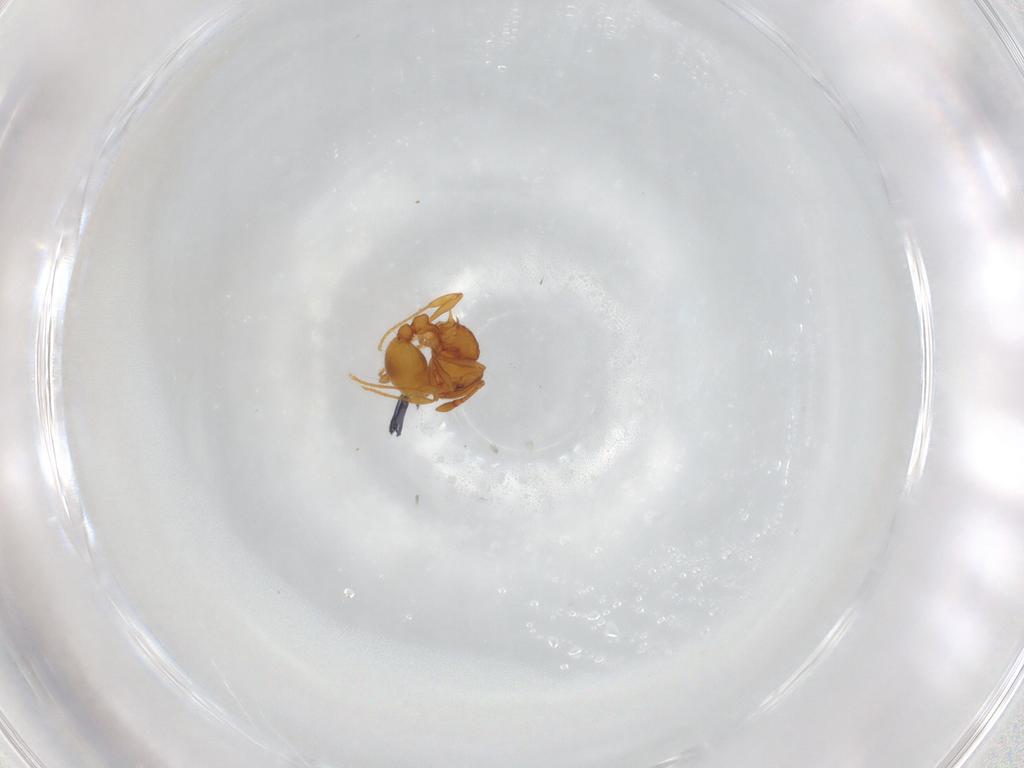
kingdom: Animalia
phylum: Arthropoda
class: Insecta
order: Hymenoptera
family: Formicidae
